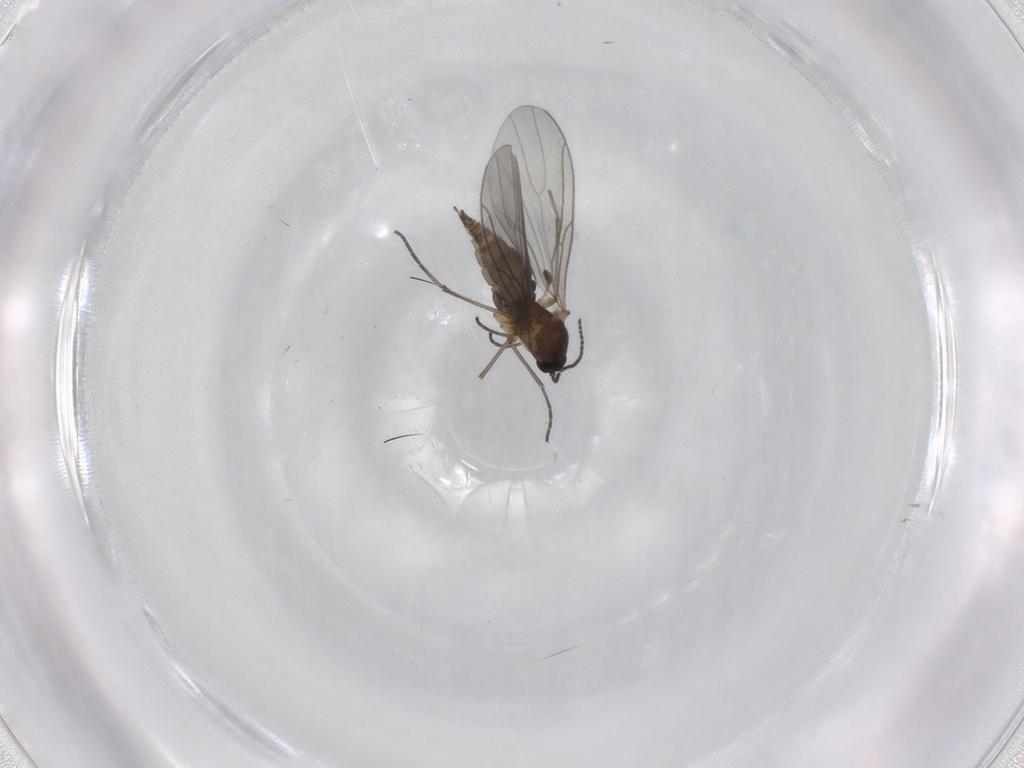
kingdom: Animalia
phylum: Arthropoda
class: Insecta
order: Diptera
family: Sciaridae
